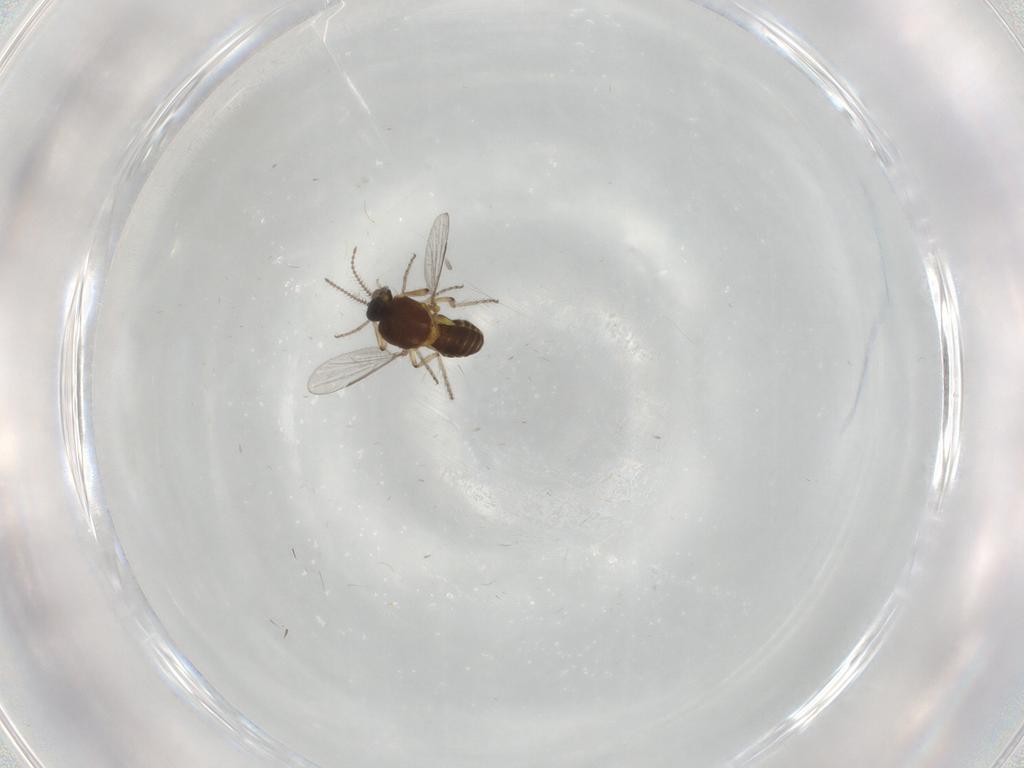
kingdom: Animalia
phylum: Arthropoda
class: Insecta
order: Diptera
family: Sciaridae
